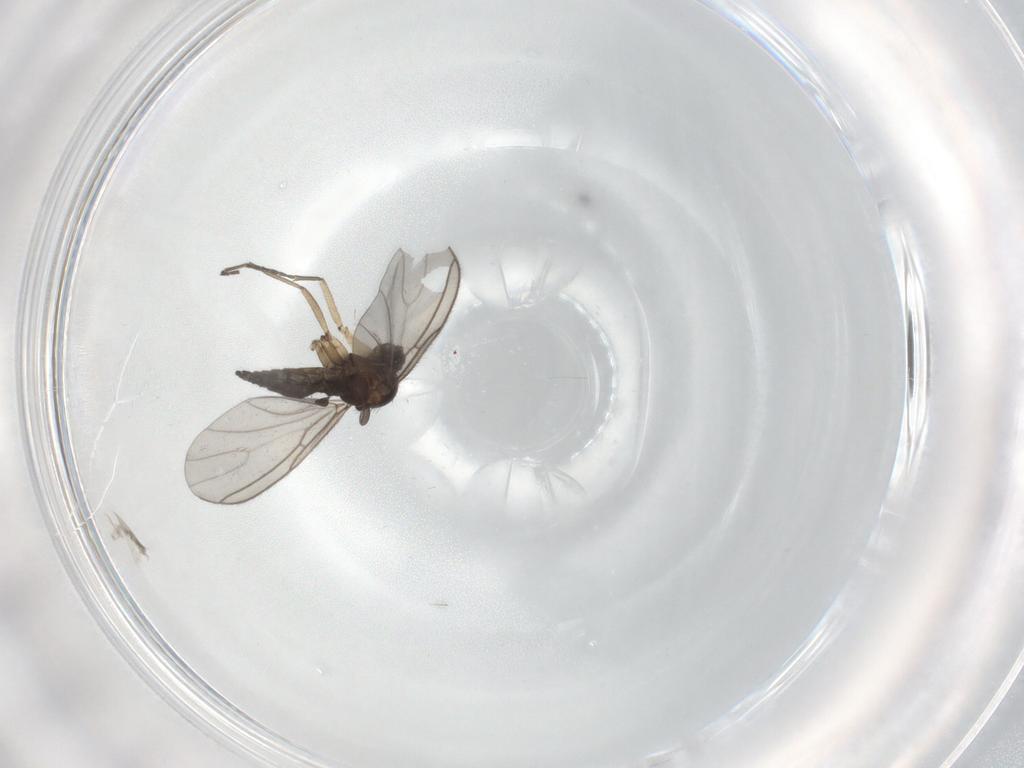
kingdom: Animalia
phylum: Arthropoda
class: Insecta
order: Diptera
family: Sciaridae
